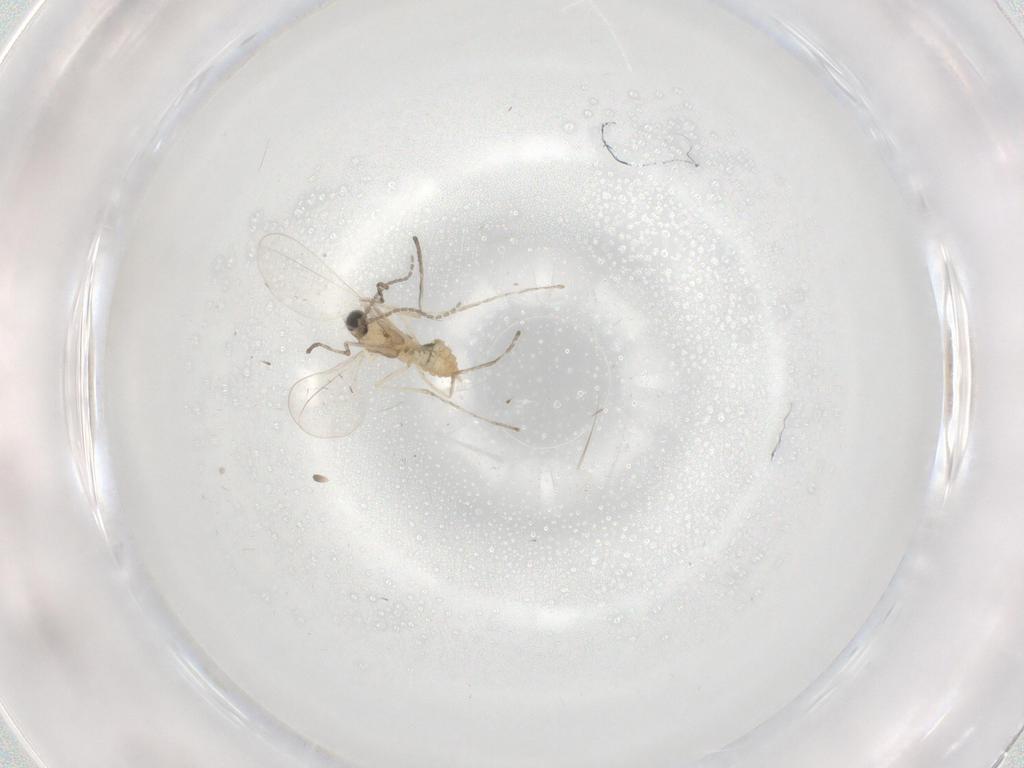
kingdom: Animalia
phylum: Arthropoda
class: Insecta
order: Diptera
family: Cecidomyiidae
